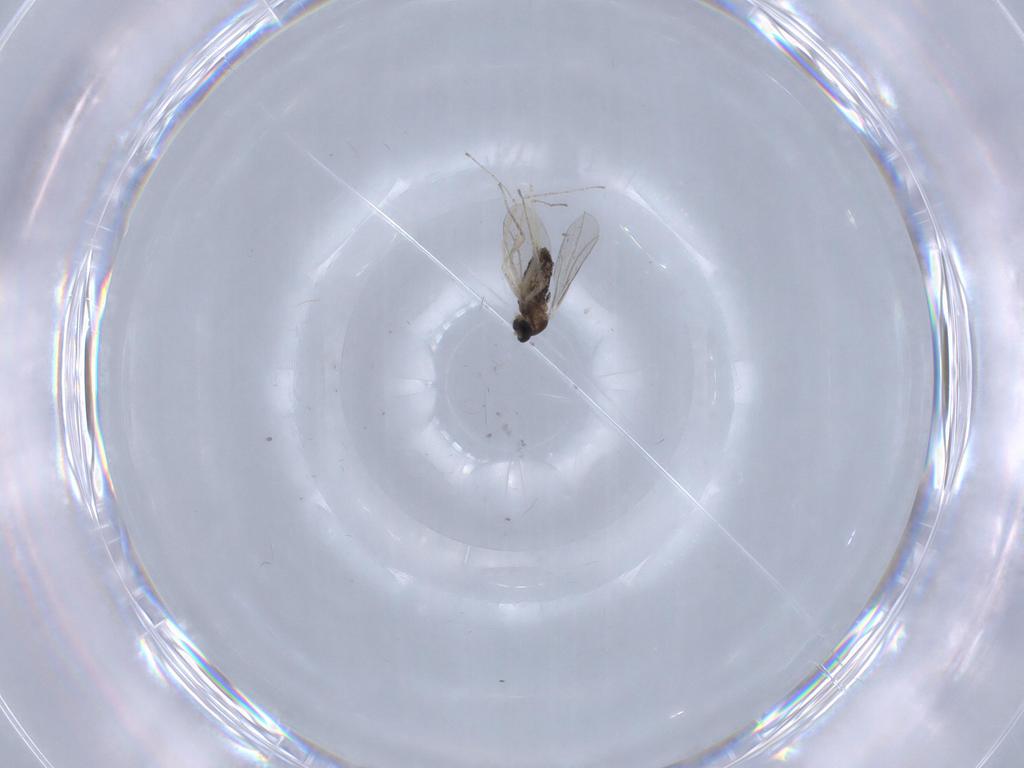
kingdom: Animalia
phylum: Arthropoda
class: Insecta
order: Diptera
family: Cecidomyiidae
